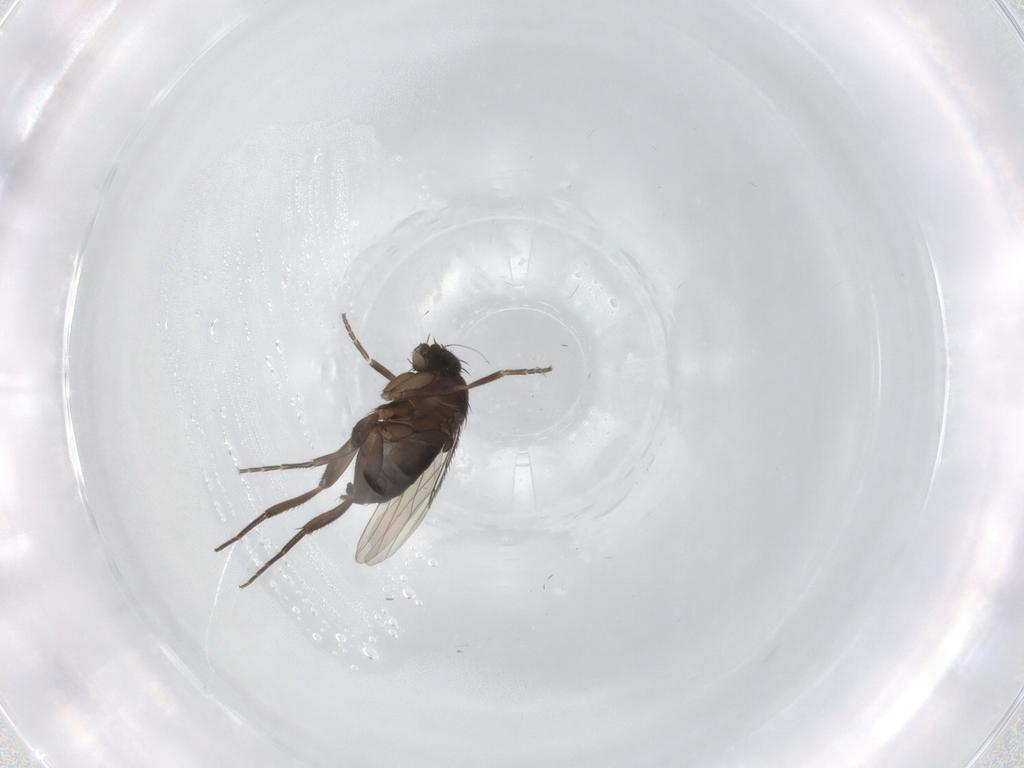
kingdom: Animalia
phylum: Arthropoda
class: Insecta
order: Diptera
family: Phoridae
